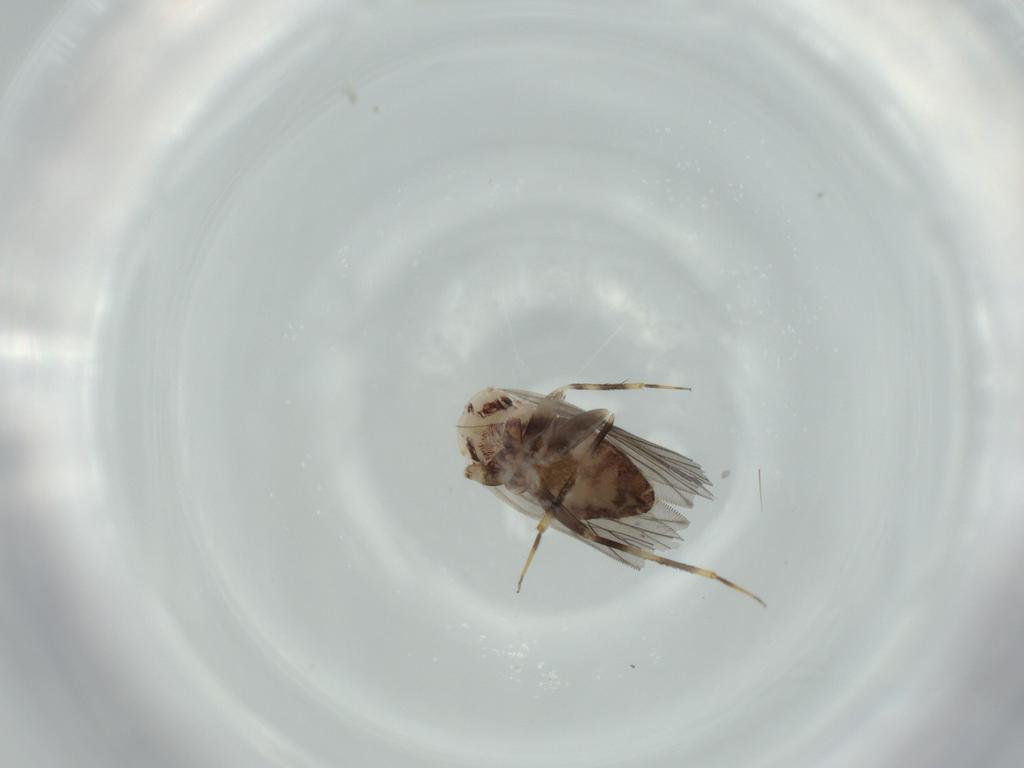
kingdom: Animalia
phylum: Arthropoda
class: Insecta
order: Psocodea
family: Lepidopsocidae
